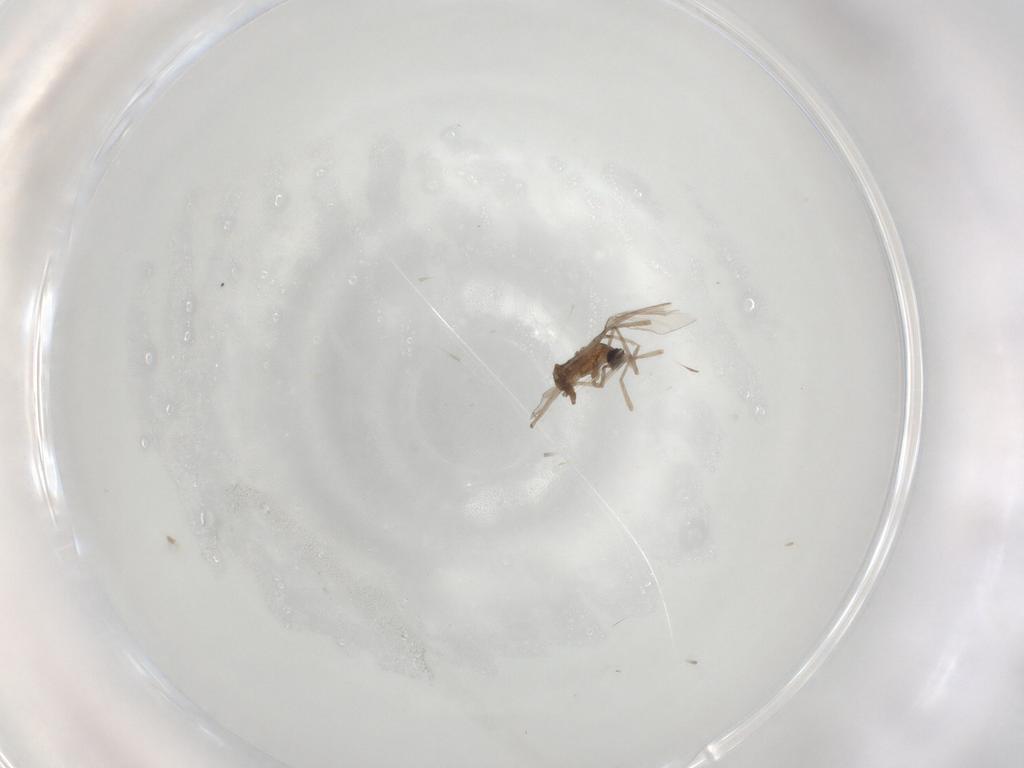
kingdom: Animalia
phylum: Arthropoda
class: Insecta
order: Diptera
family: Cecidomyiidae
